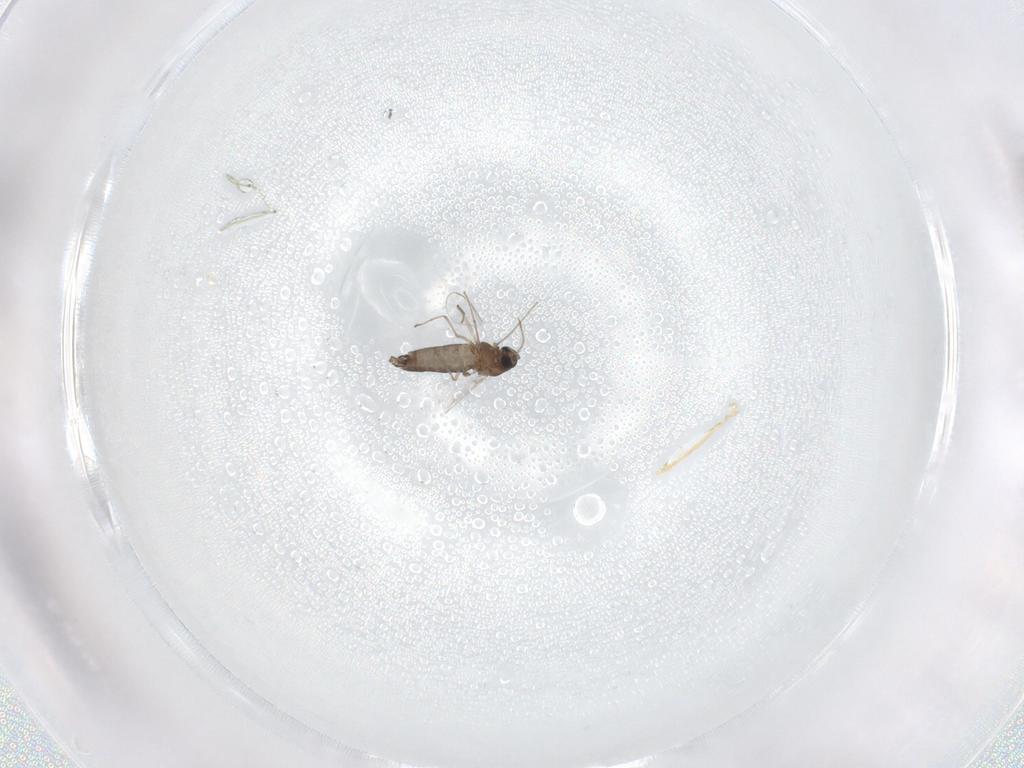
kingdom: Animalia
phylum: Arthropoda
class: Insecta
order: Diptera
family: Chironomidae
